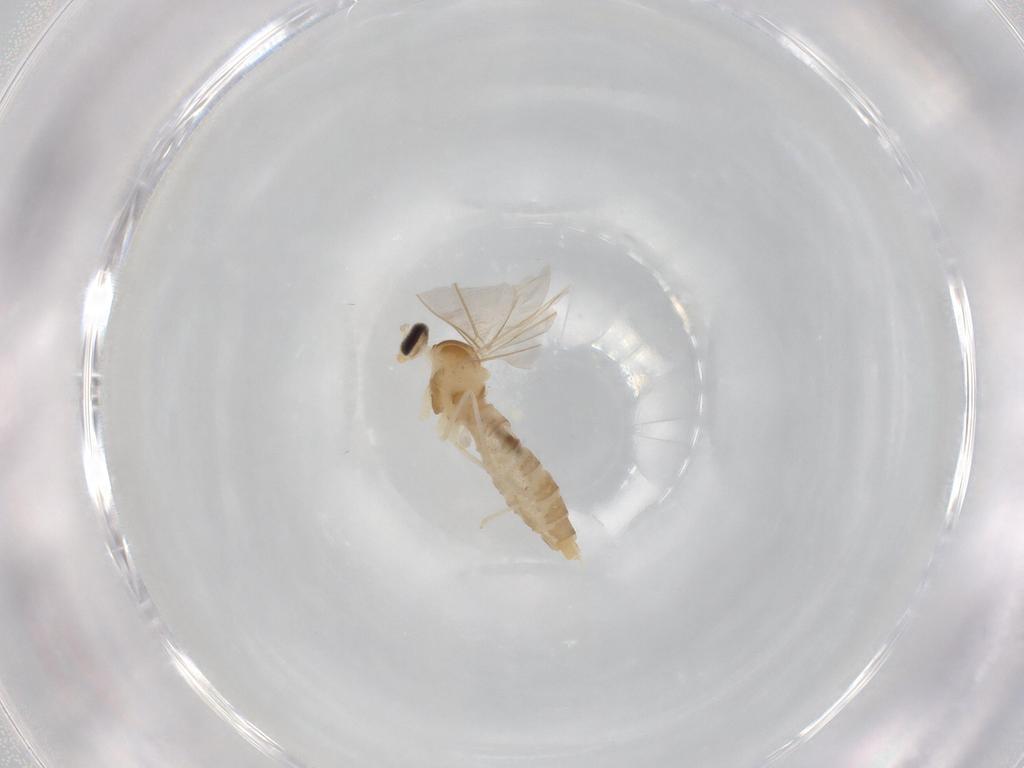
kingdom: Animalia
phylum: Arthropoda
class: Insecta
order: Diptera
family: Cecidomyiidae
